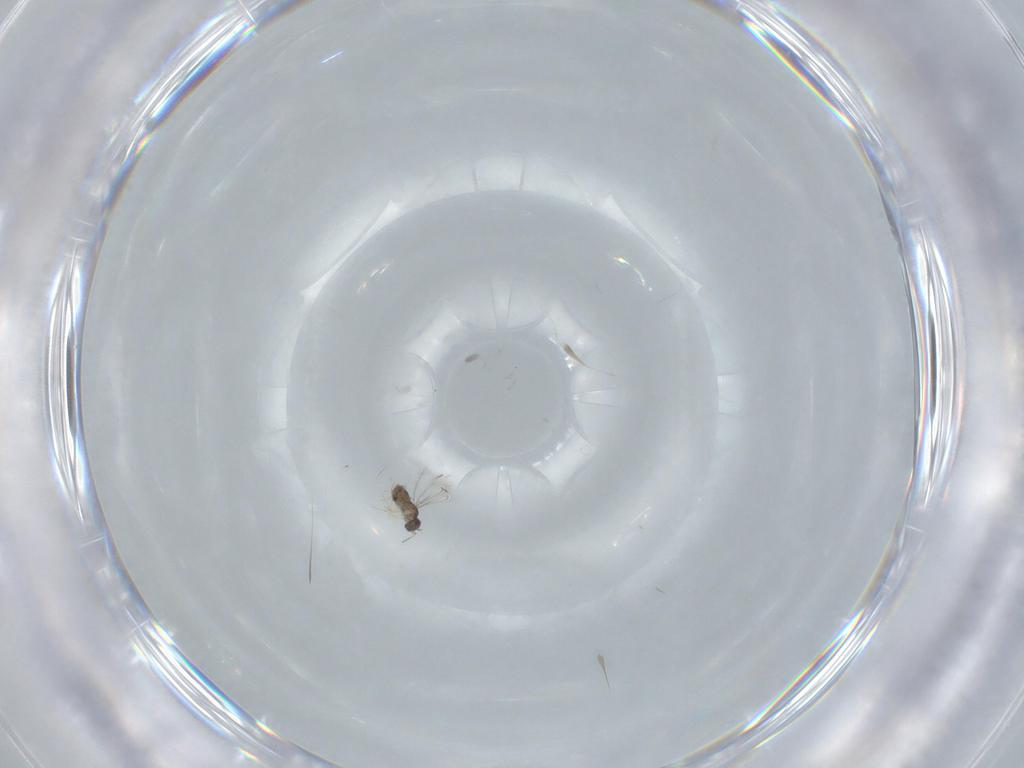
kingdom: Animalia
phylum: Arthropoda
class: Insecta
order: Hymenoptera
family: Mymaridae
